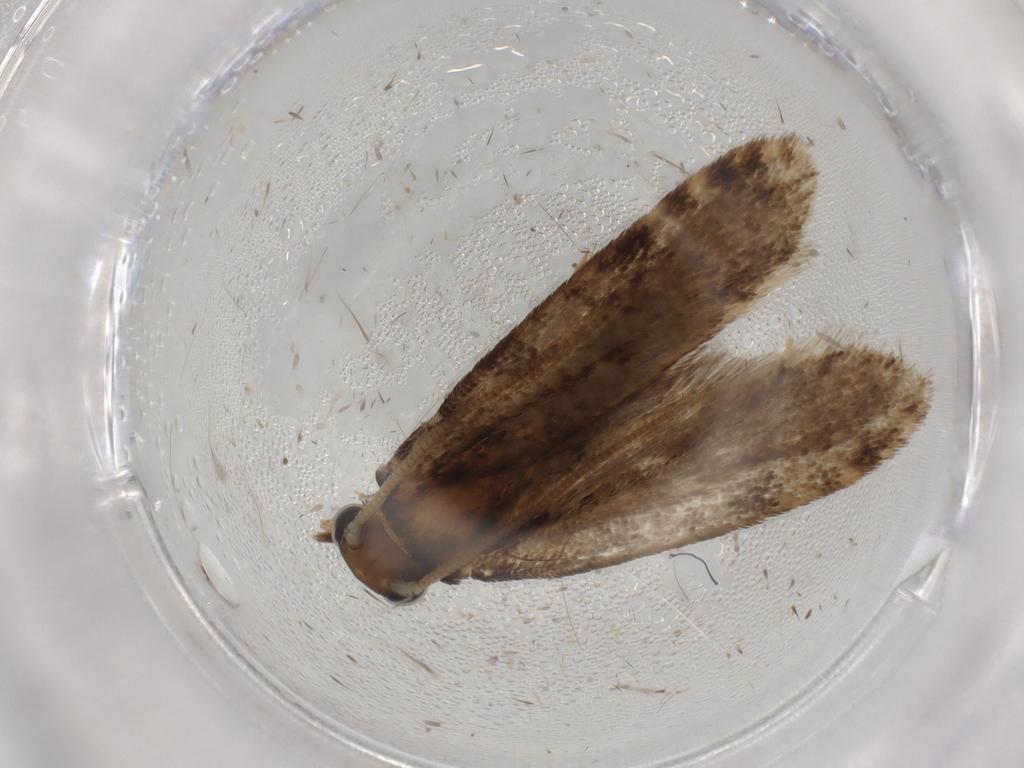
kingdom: Animalia
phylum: Arthropoda
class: Insecta
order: Lepidoptera
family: Tineidae
